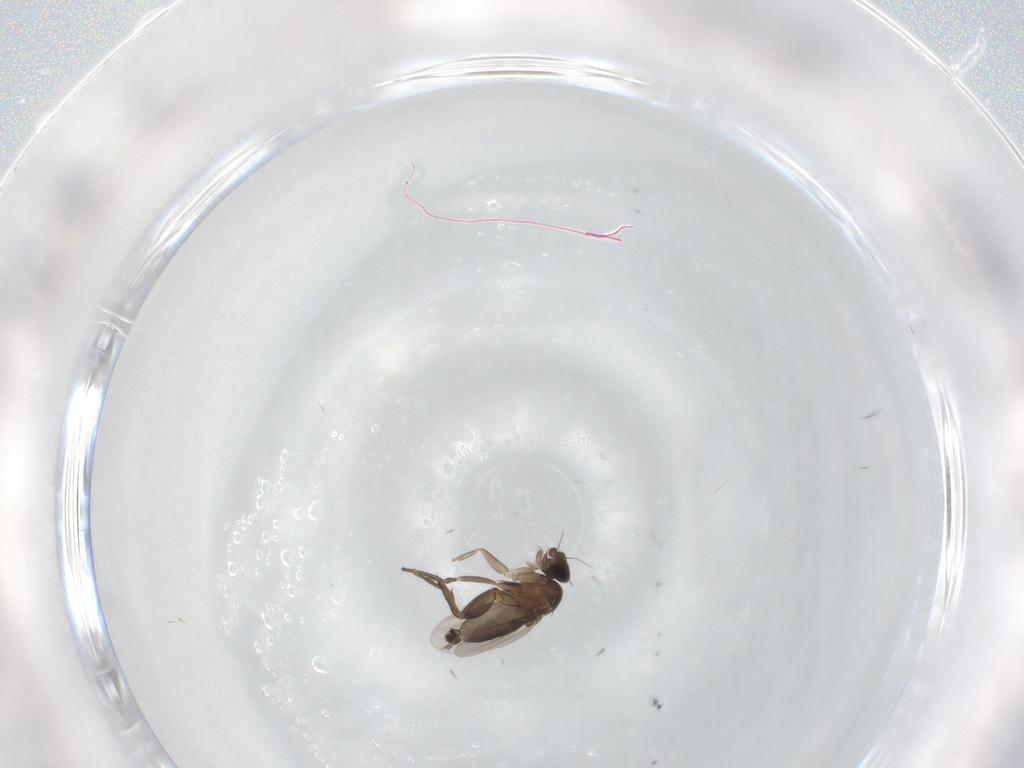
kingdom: Animalia
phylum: Arthropoda
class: Insecta
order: Diptera
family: Phoridae
